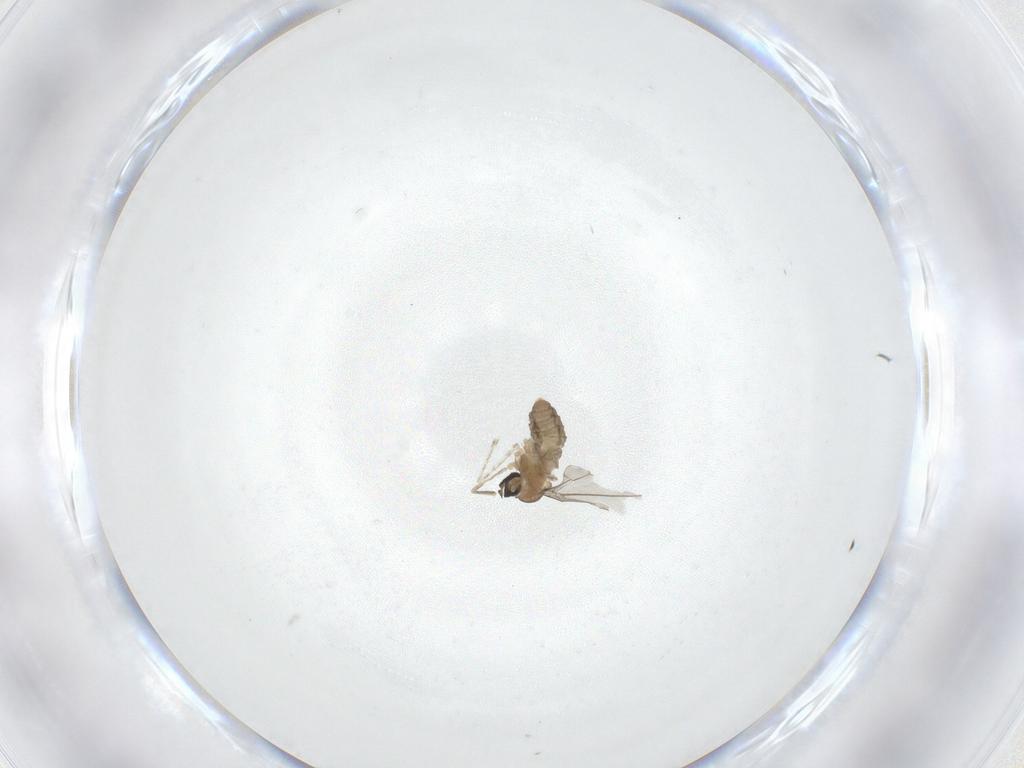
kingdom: Animalia
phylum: Arthropoda
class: Insecta
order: Diptera
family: Cecidomyiidae
